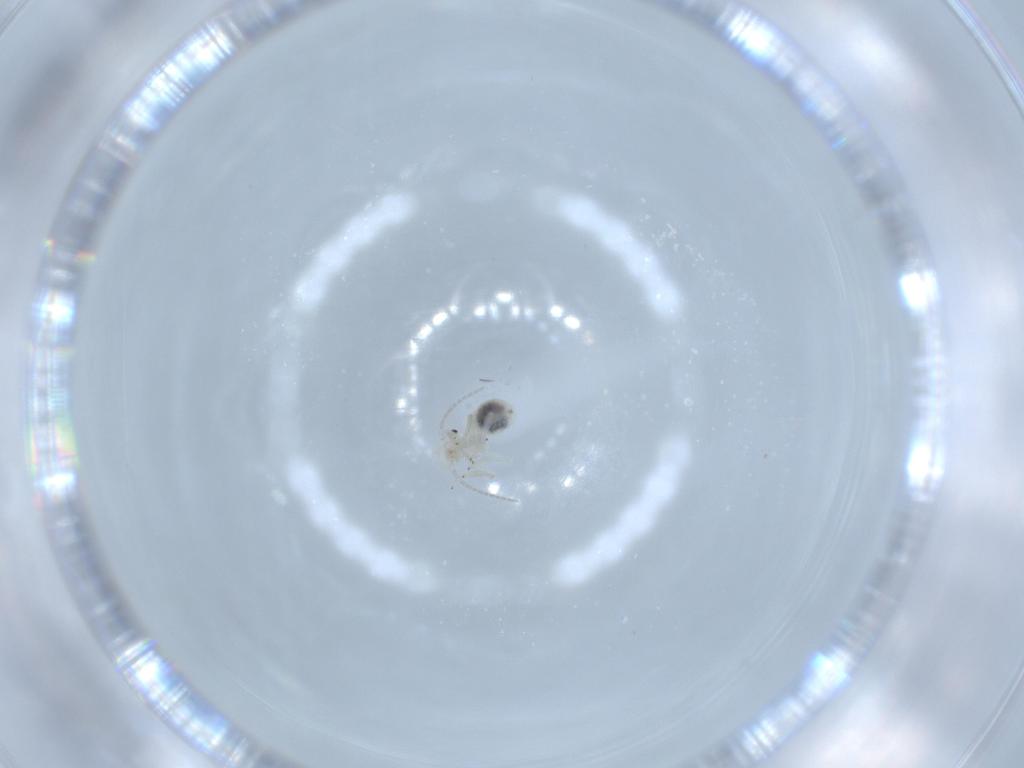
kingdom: Animalia
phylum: Arthropoda
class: Insecta
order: Psocodea
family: Caeciliusidae
